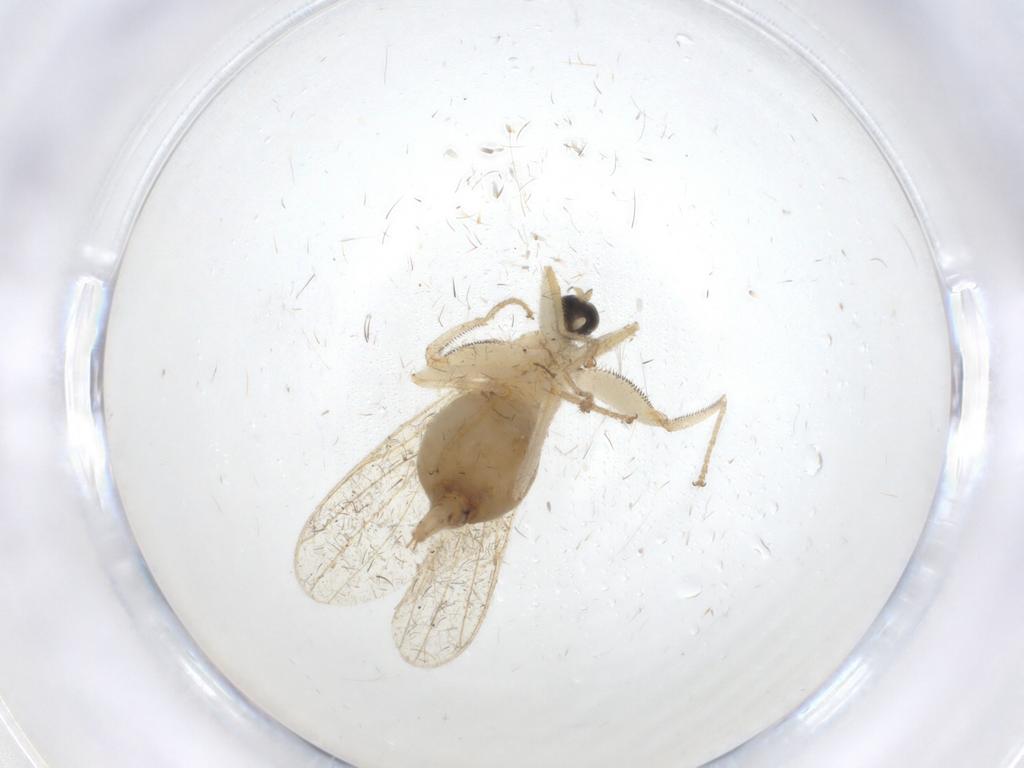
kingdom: Animalia
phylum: Arthropoda
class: Insecta
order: Diptera
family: Hybotidae
